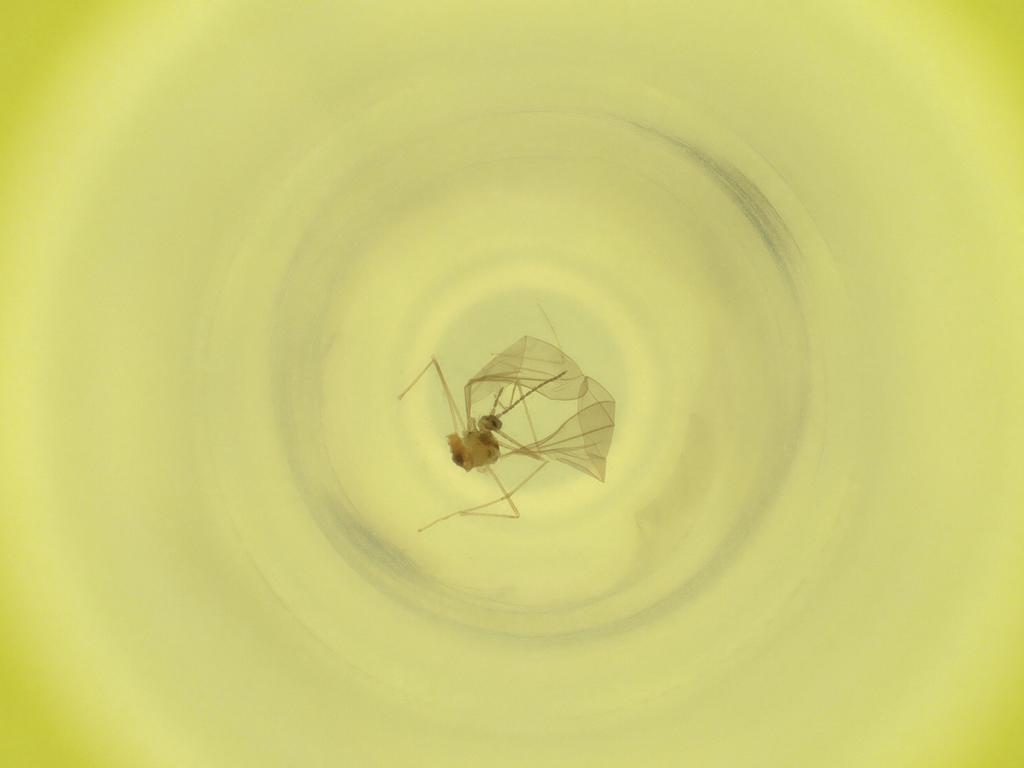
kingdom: Animalia
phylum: Arthropoda
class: Insecta
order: Diptera
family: Cecidomyiidae
